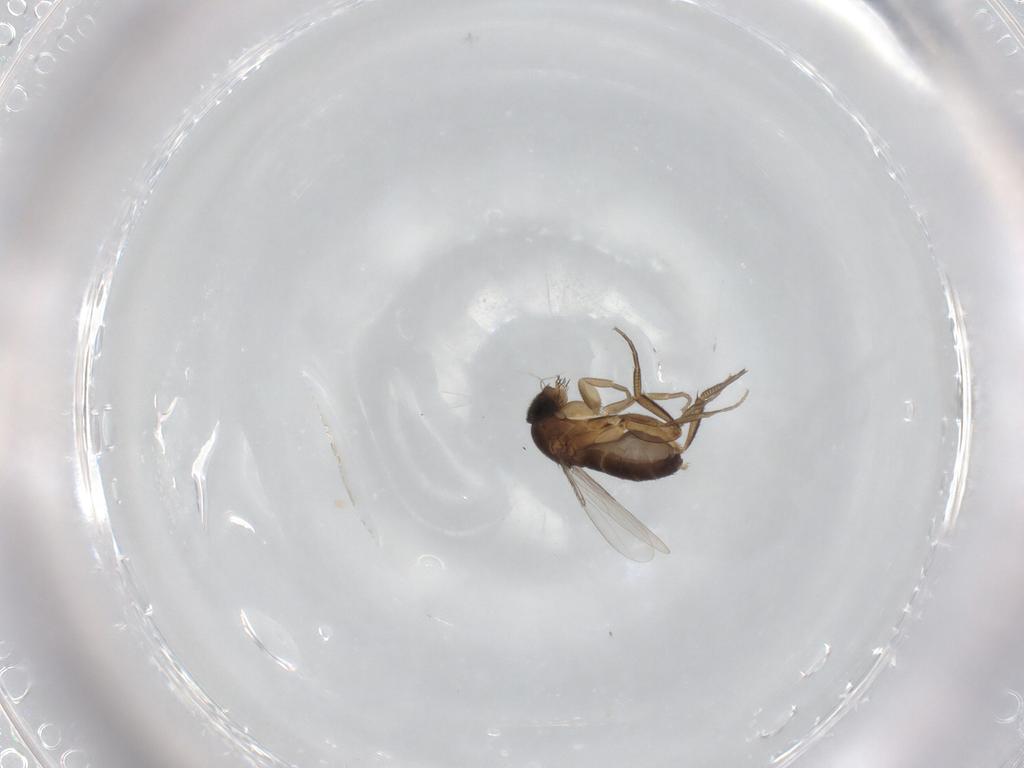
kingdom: Animalia
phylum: Arthropoda
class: Insecta
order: Diptera
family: Phoridae
